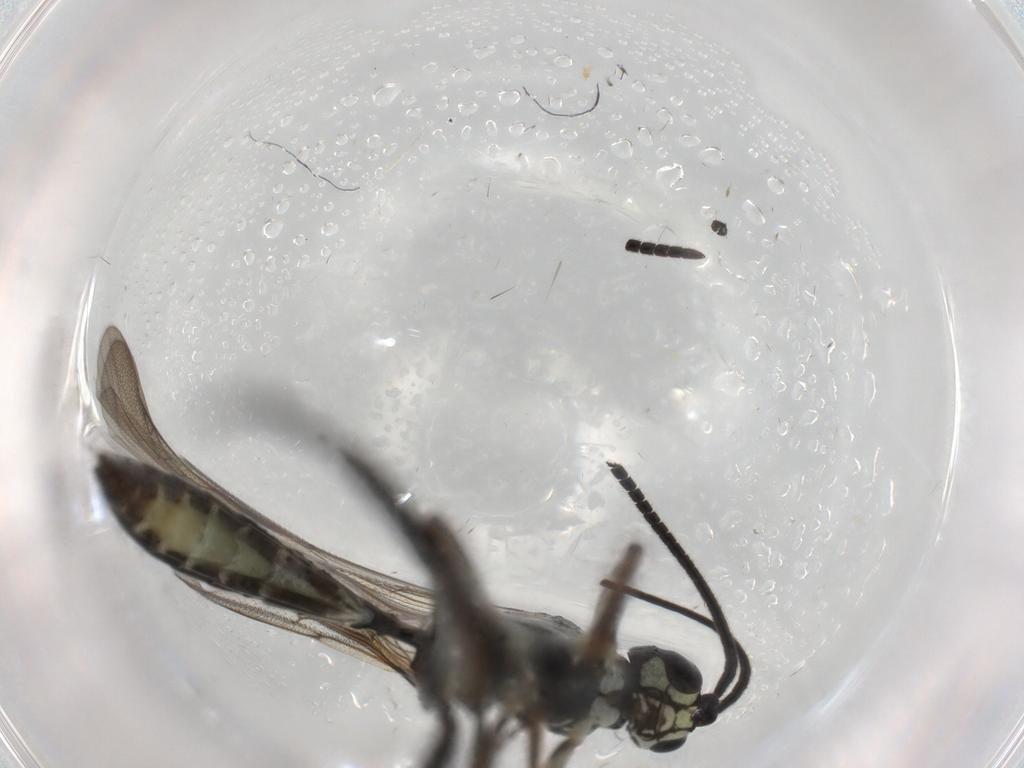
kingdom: Animalia
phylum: Arthropoda
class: Insecta
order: Hymenoptera
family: Ichneumonidae
